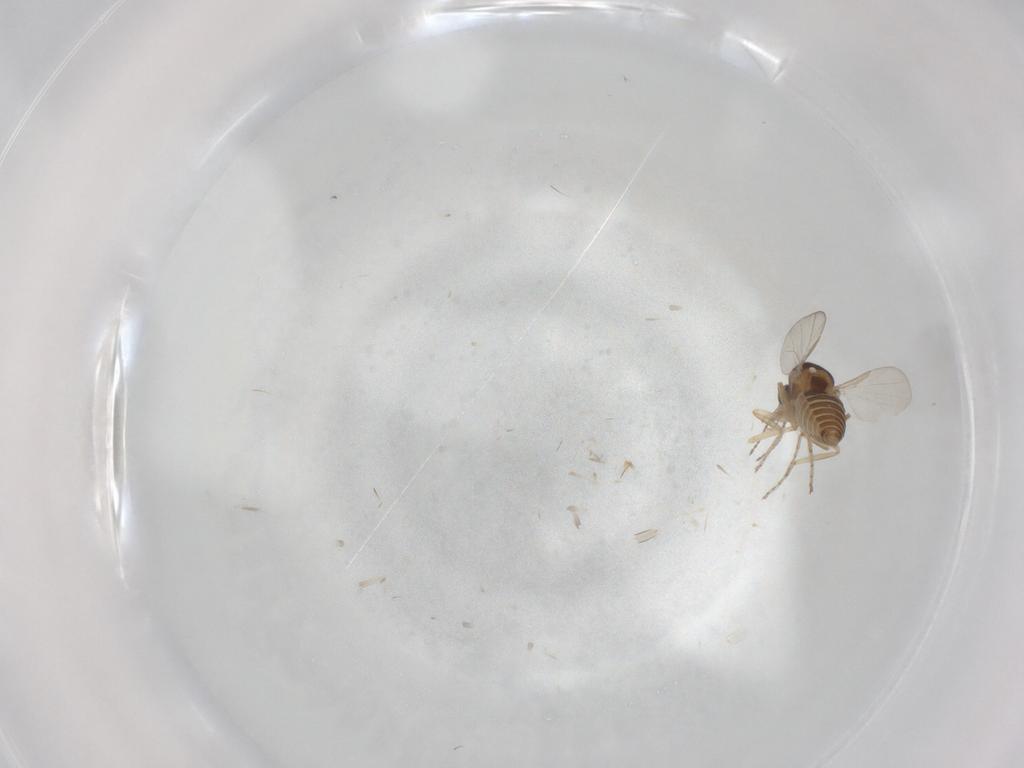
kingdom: Animalia
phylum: Arthropoda
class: Insecta
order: Diptera
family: Ceratopogonidae
